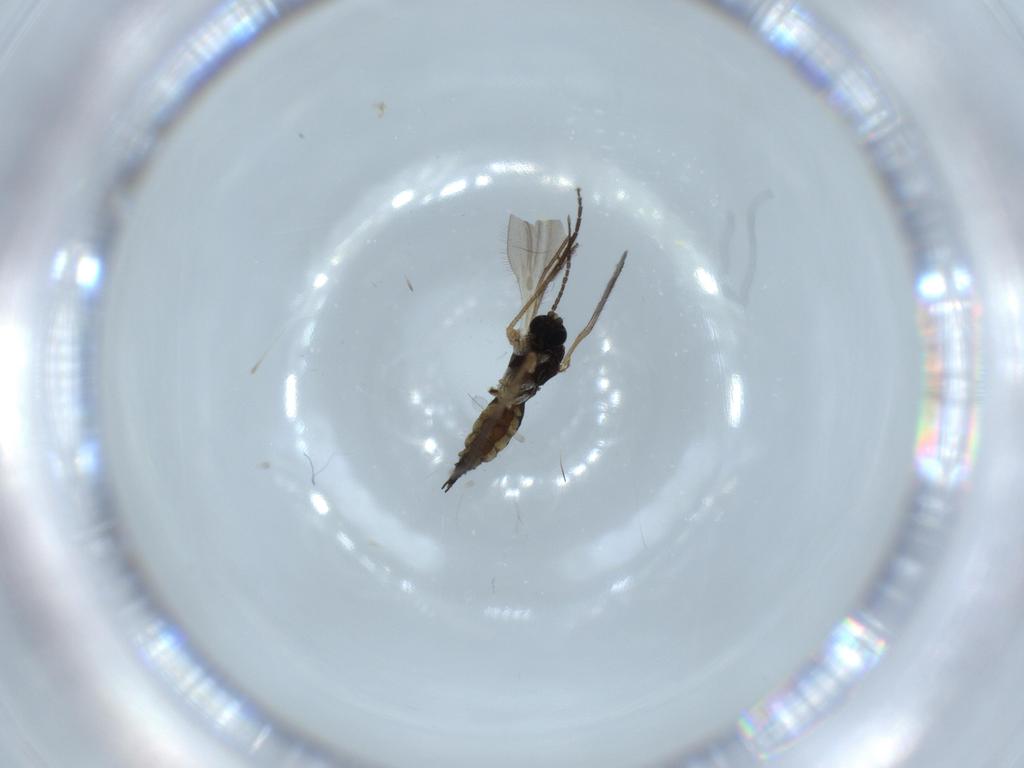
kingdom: Animalia
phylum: Arthropoda
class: Insecta
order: Diptera
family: Sciaridae
